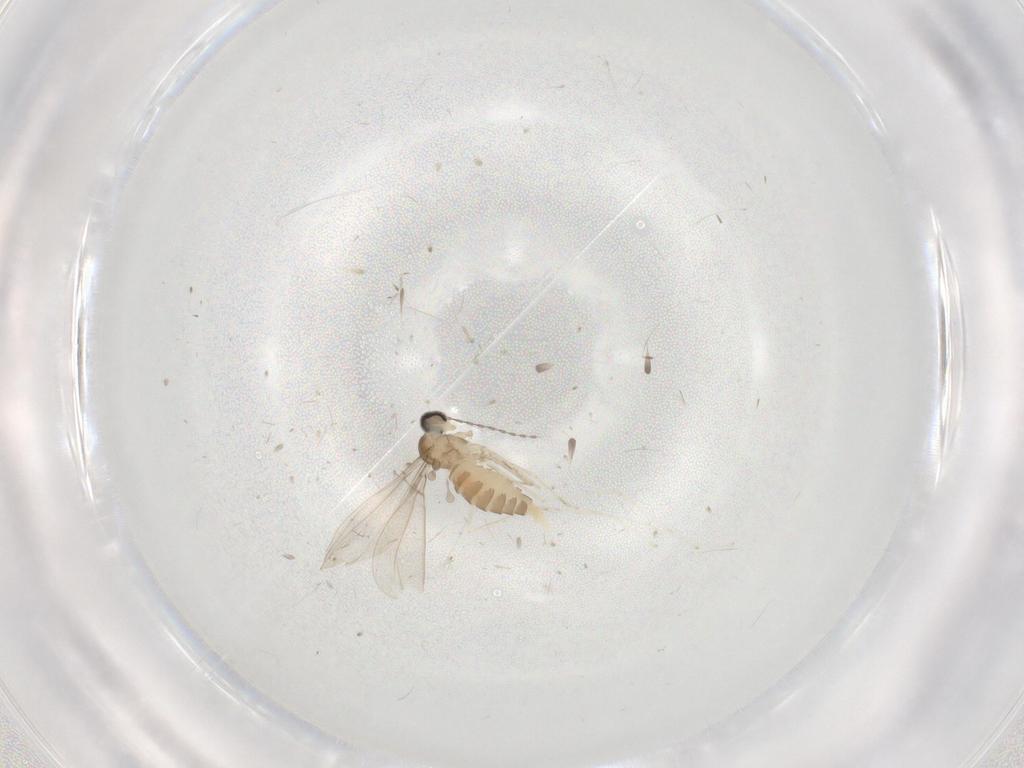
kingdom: Animalia
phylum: Arthropoda
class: Insecta
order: Diptera
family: Cecidomyiidae
